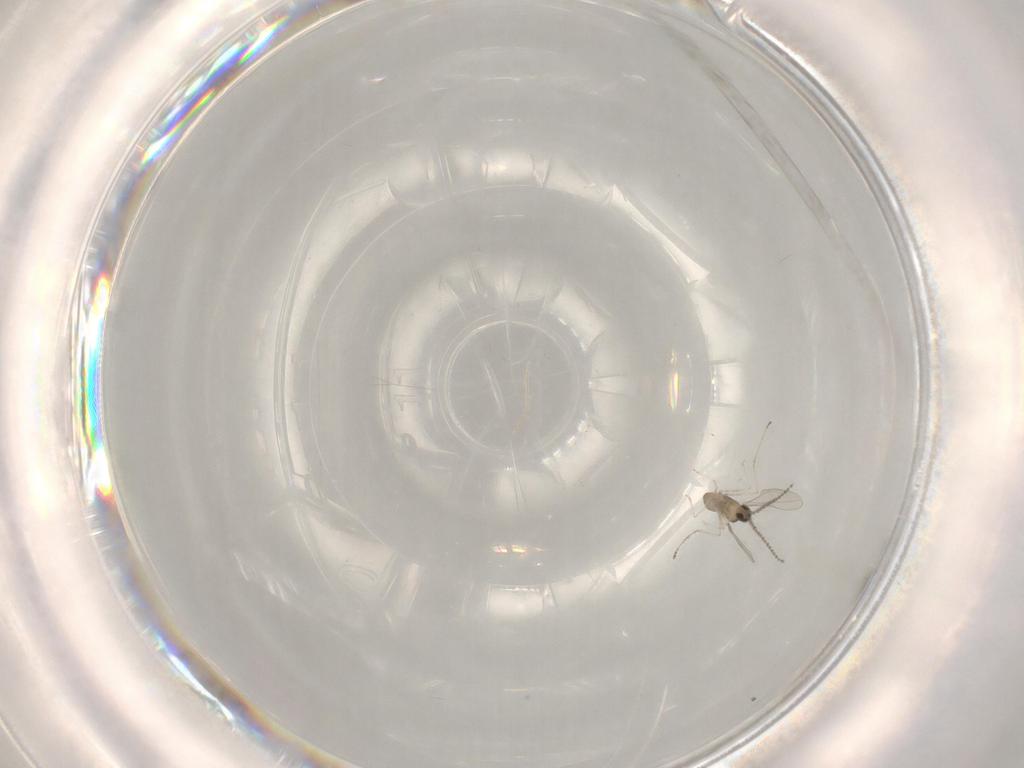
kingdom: Animalia
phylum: Arthropoda
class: Insecta
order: Diptera
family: Cecidomyiidae
